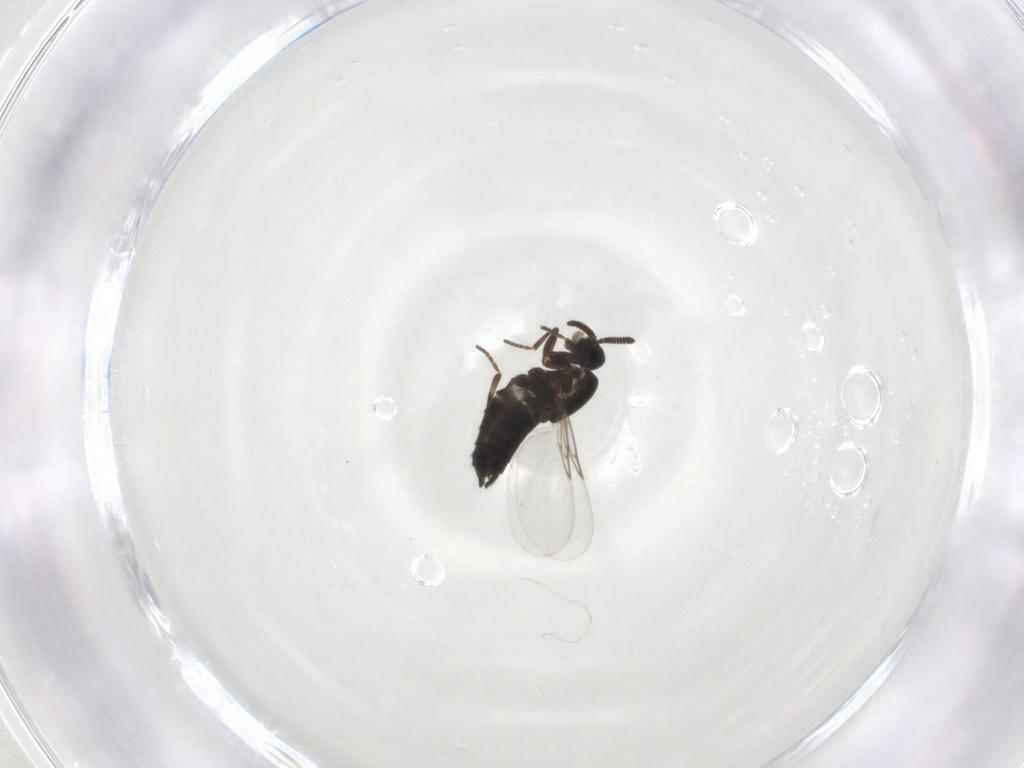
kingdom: Animalia
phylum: Arthropoda
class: Insecta
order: Diptera
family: Scatopsidae
